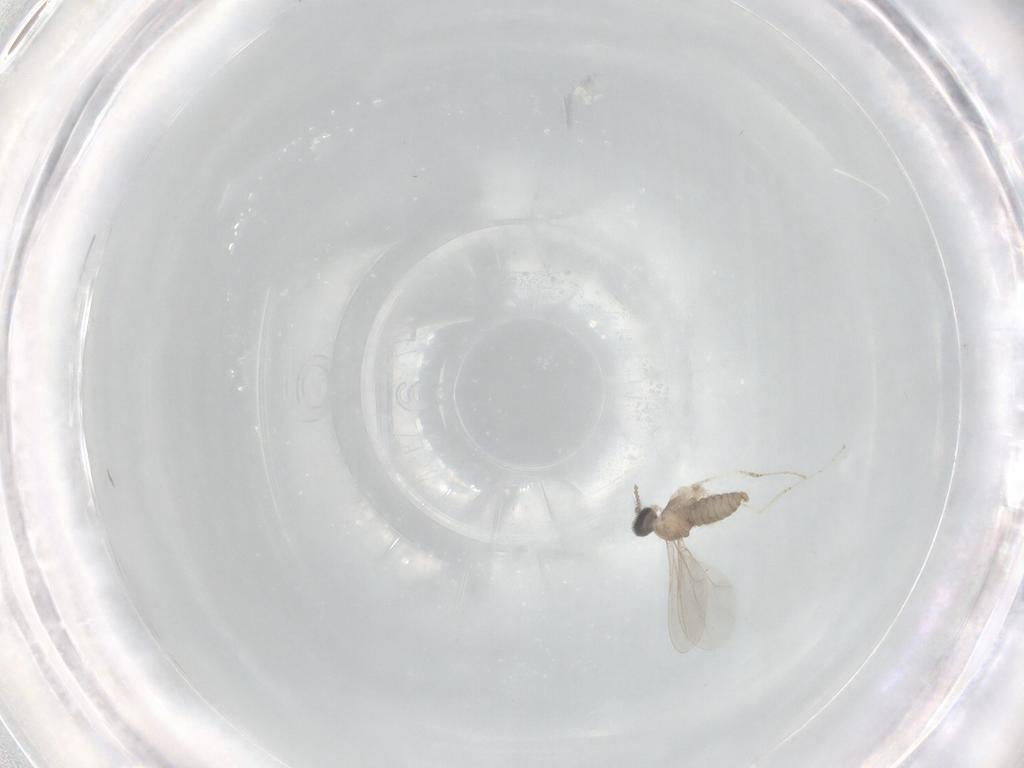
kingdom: Animalia
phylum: Arthropoda
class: Insecta
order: Diptera
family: Cecidomyiidae
